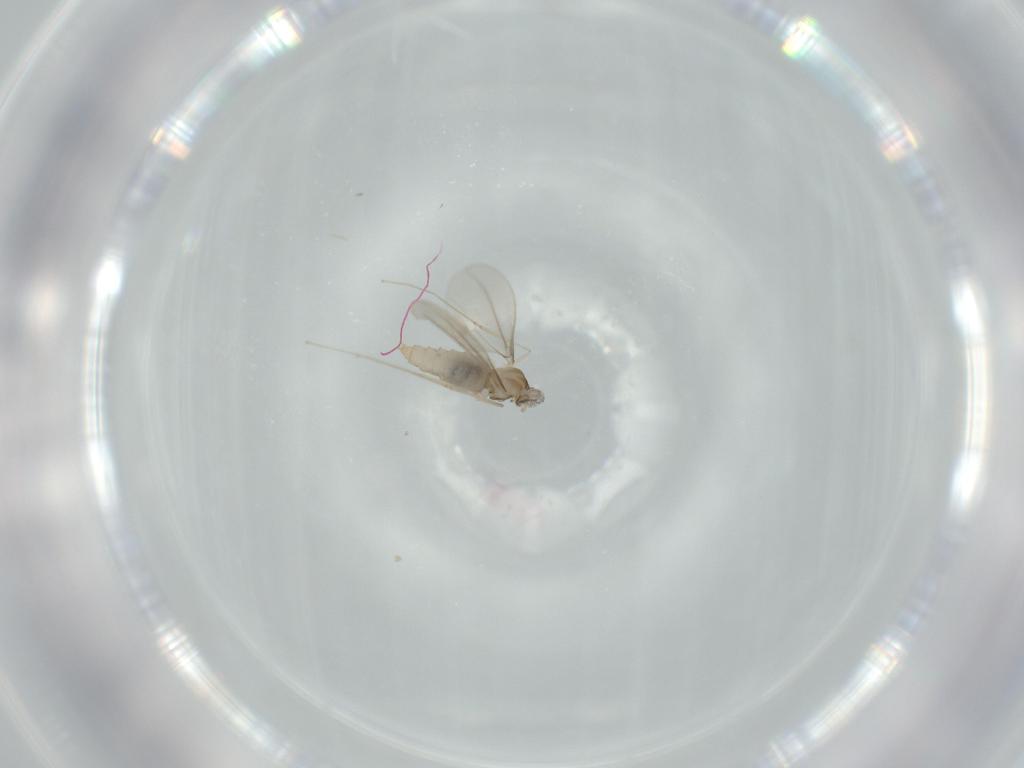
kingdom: Animalia
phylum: Arthropoda
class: Insecta
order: Diptera
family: Cecidomyiidae
